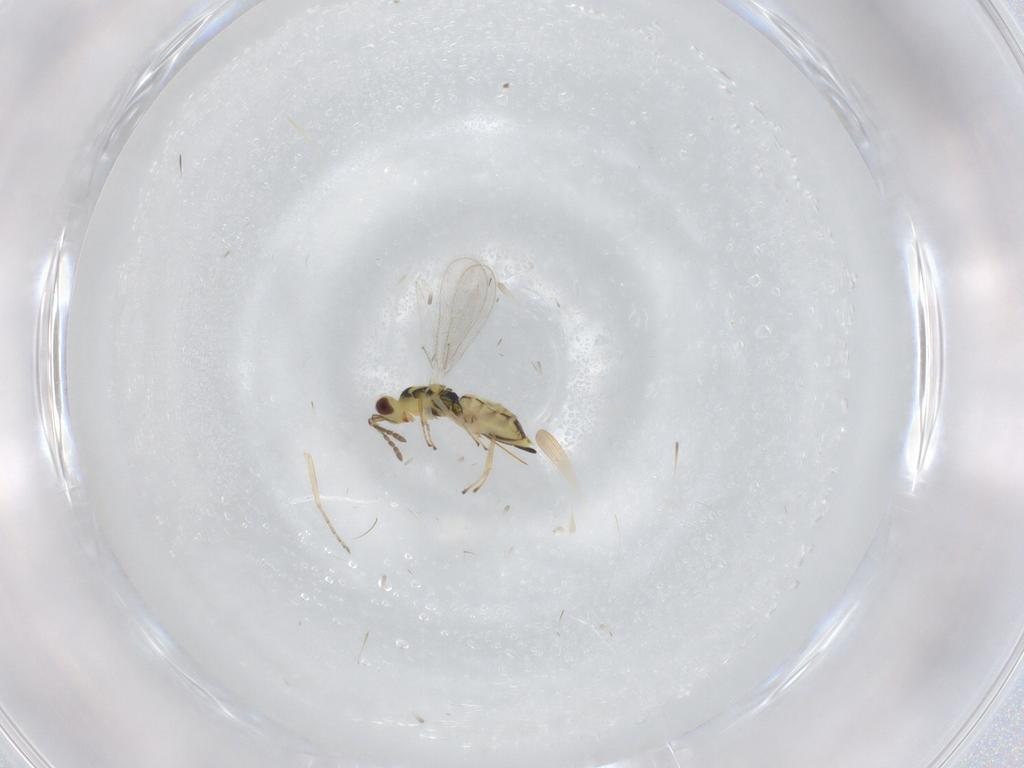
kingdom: Animalia
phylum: Arthropoda
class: Insecta
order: Hymenoptera
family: Eulophidae
